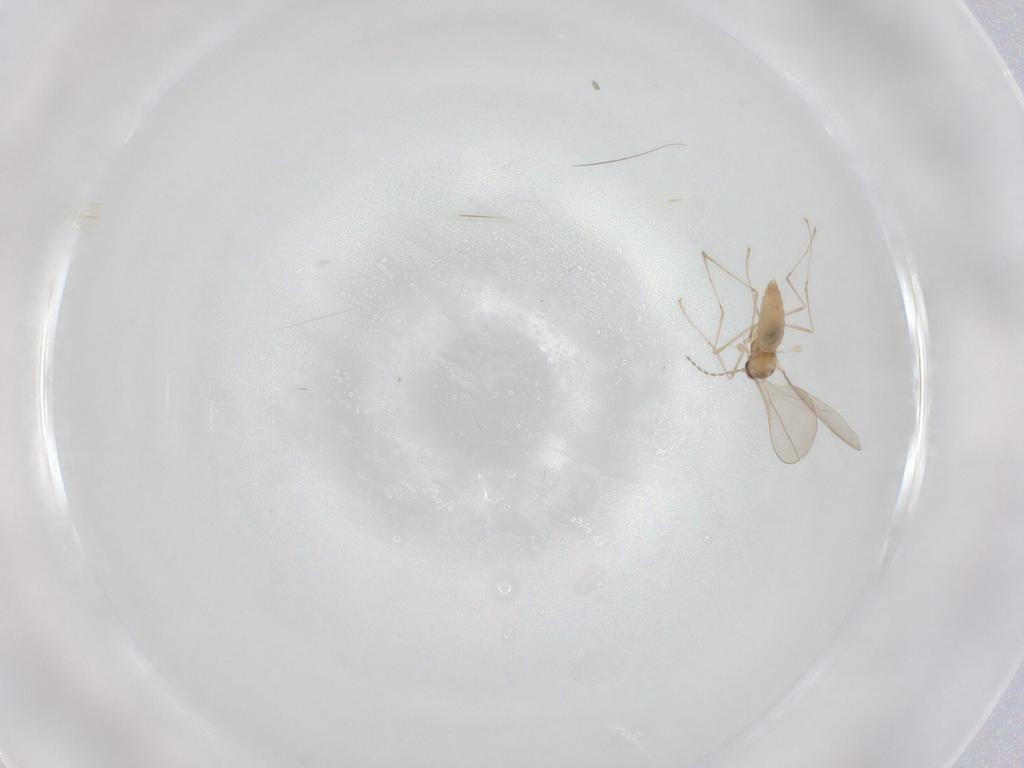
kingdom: Animalia
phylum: Arthropoda
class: Insecta
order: Diptera
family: Cecidomyiidae
